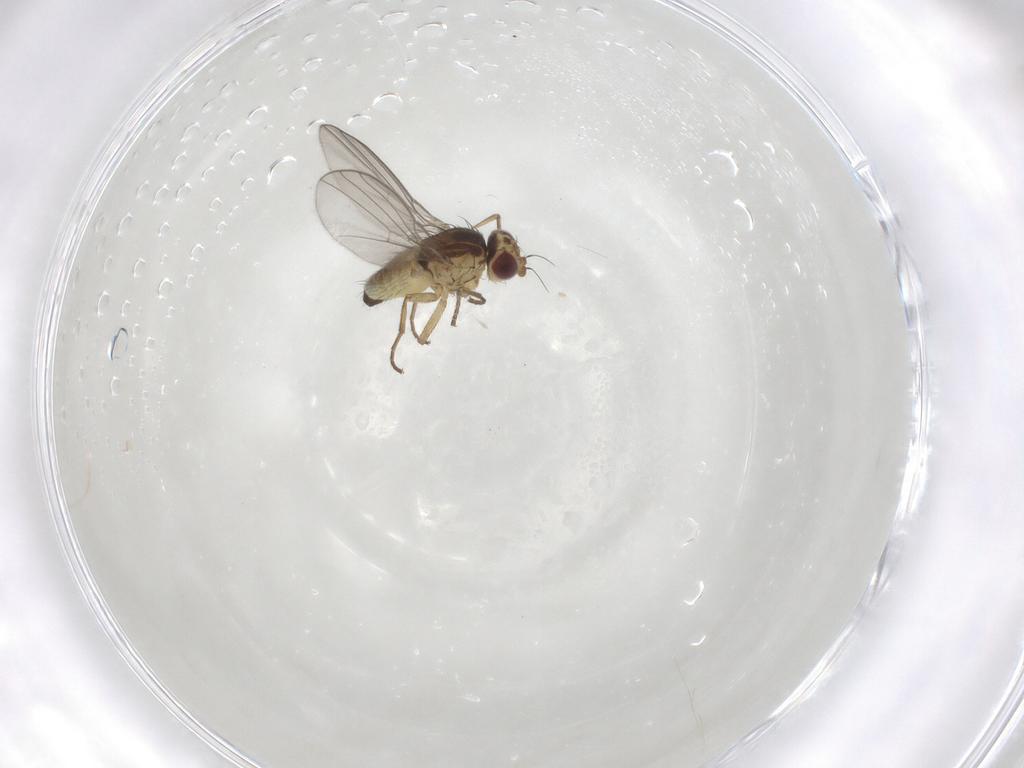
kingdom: Animalia
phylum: Arthropoda
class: Insecta
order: Diptera
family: Agromyzidae
